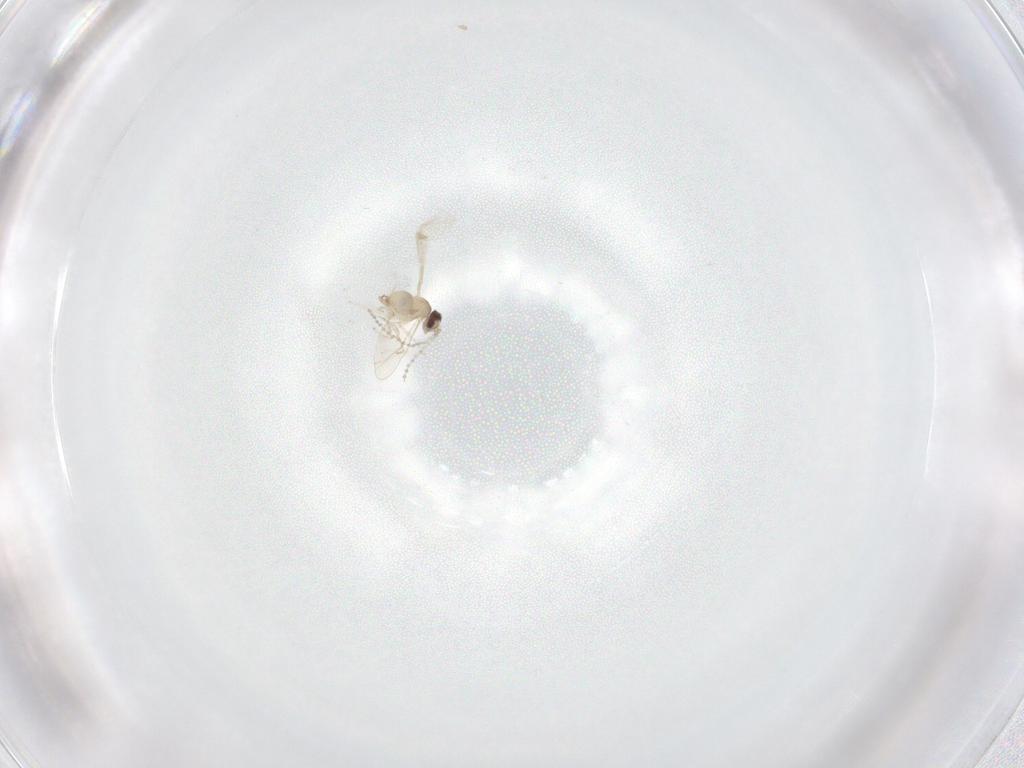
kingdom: Animalia
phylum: Arthropoda
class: Insecta
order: Diptera
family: Cecidomyiidae
